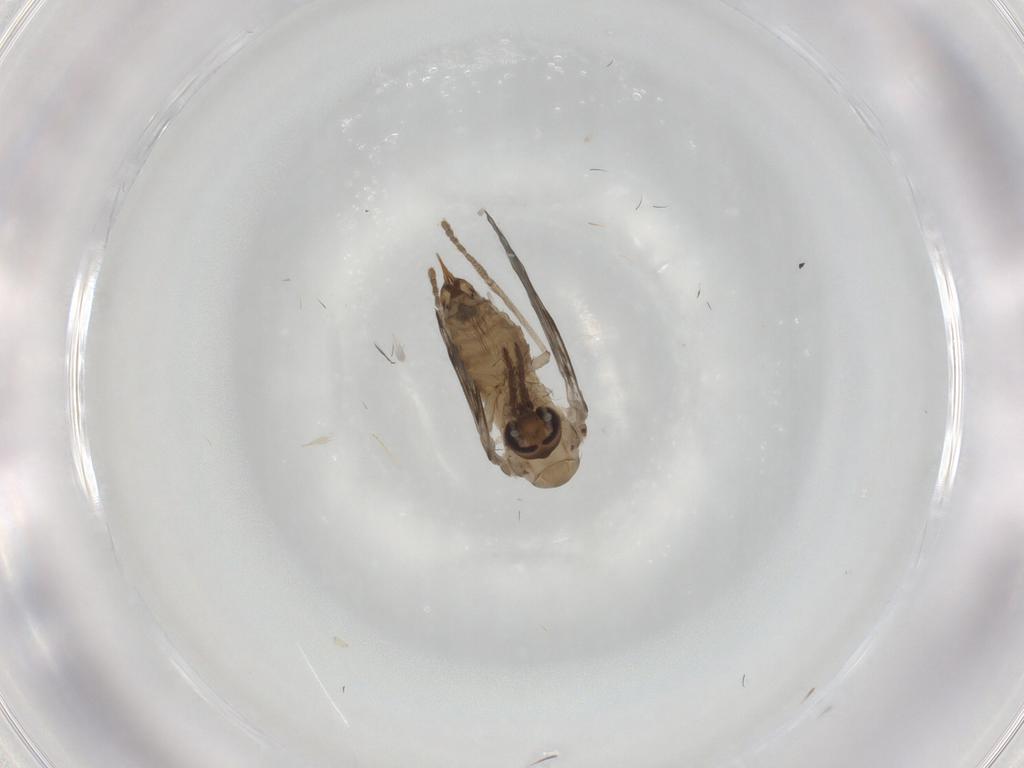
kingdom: Animalia
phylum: Arthropoda
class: Insecta
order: Diptera
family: Psychodidae
